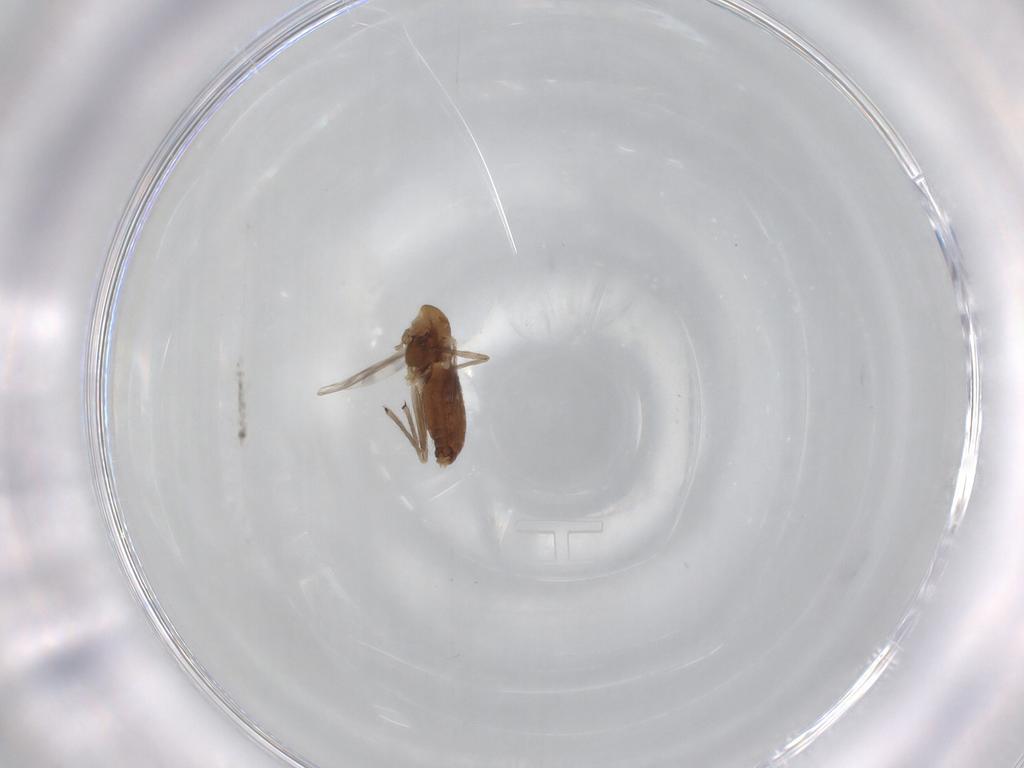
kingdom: Animalia
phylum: Arthropoda
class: Insecta
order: Diptera
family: Chironomidae
